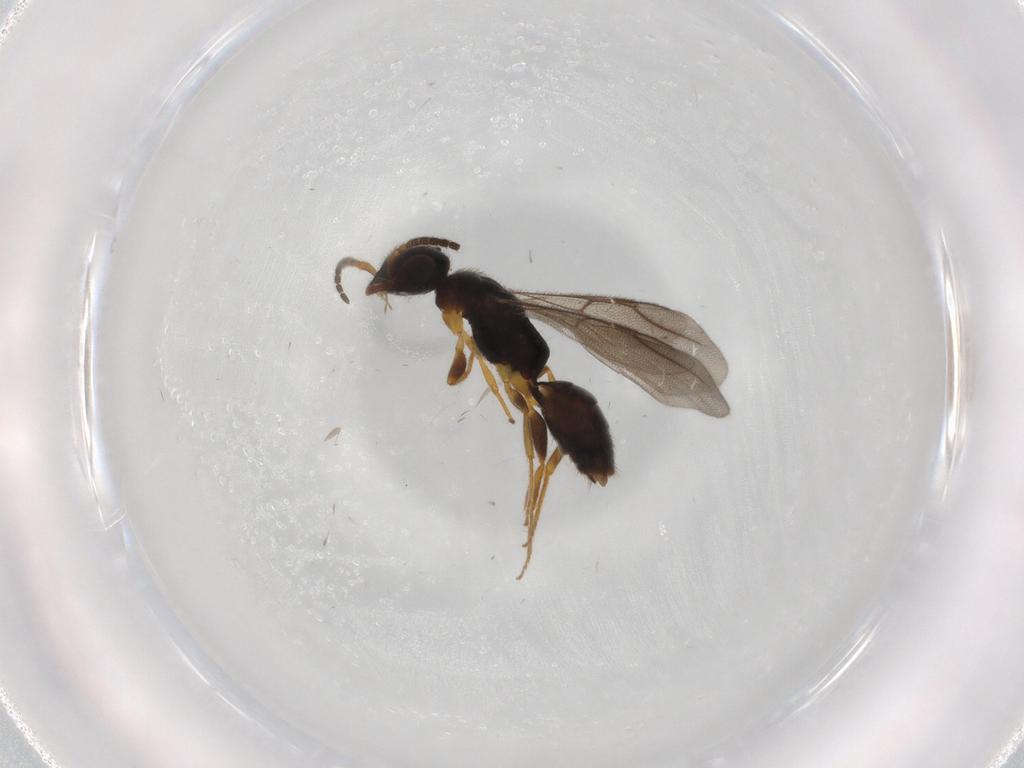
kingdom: Animalia
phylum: Arthropoda
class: Insecta
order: Hymenoptera
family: Bethylidae
